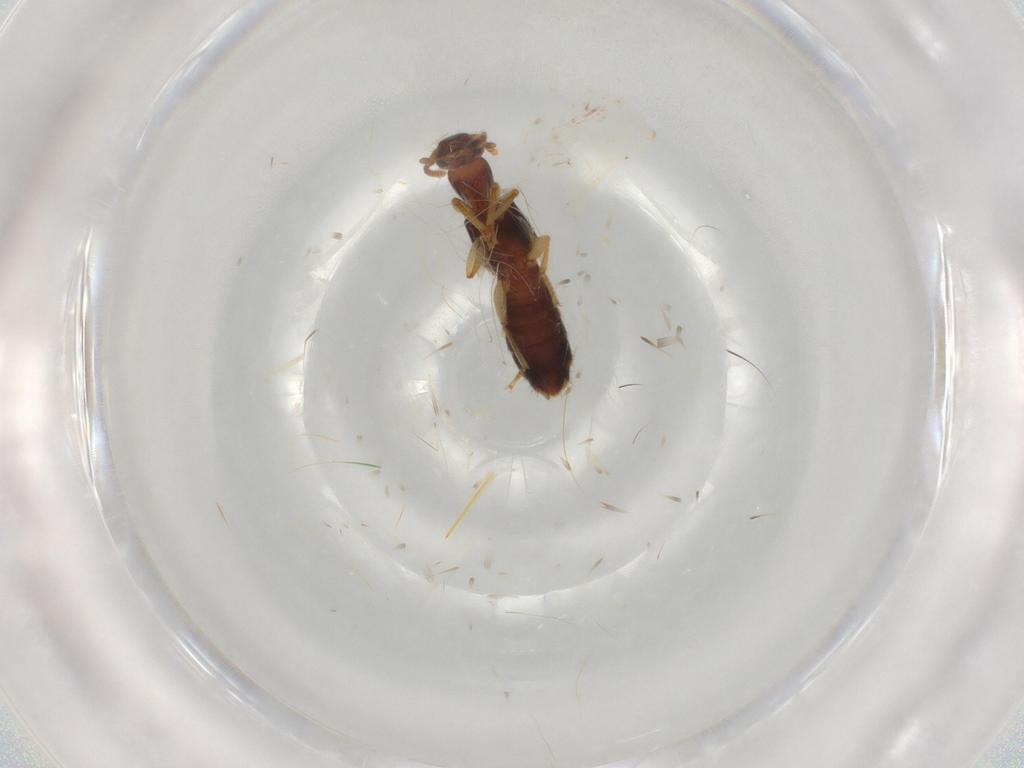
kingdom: Animalia
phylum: Arthropoda
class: Insecta
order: Coleoptera
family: Staphylinidae
